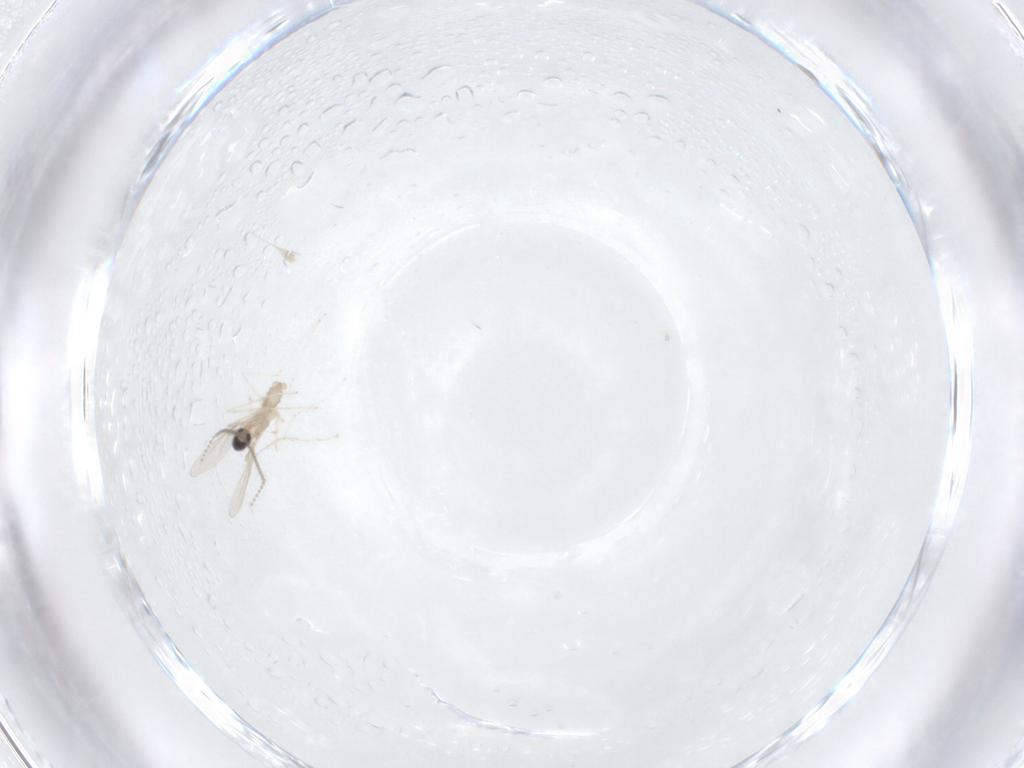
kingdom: Animalia
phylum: Arthropoda
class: Insecta
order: Diptera
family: Cecidomyiidae
